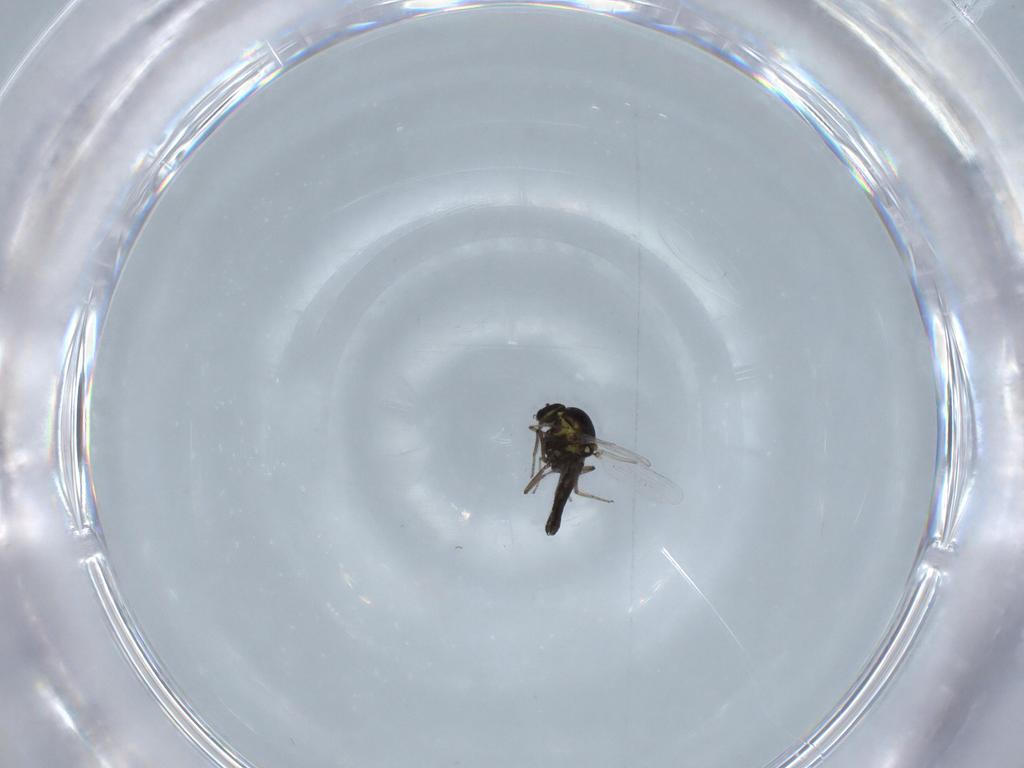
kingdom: Animalia
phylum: Arthropoda
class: Insecta
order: Diptera
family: Ceratopogonidae
